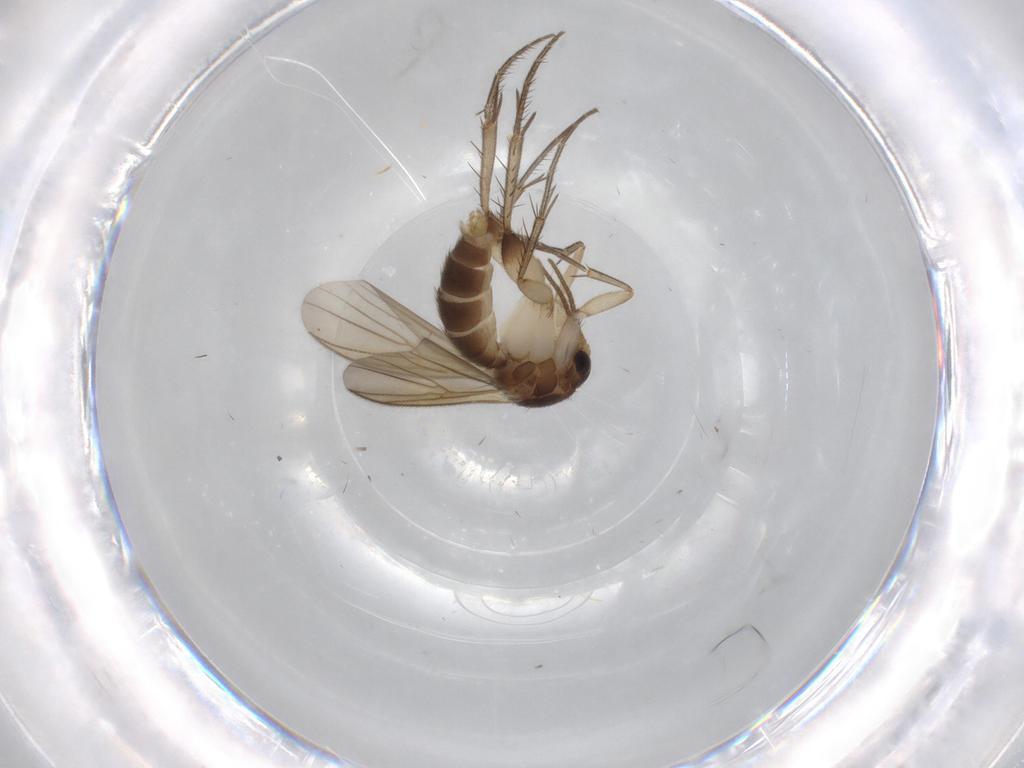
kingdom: Animalia
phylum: Arthropoda
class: Insecta
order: Diptera
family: Mycetophilidae
